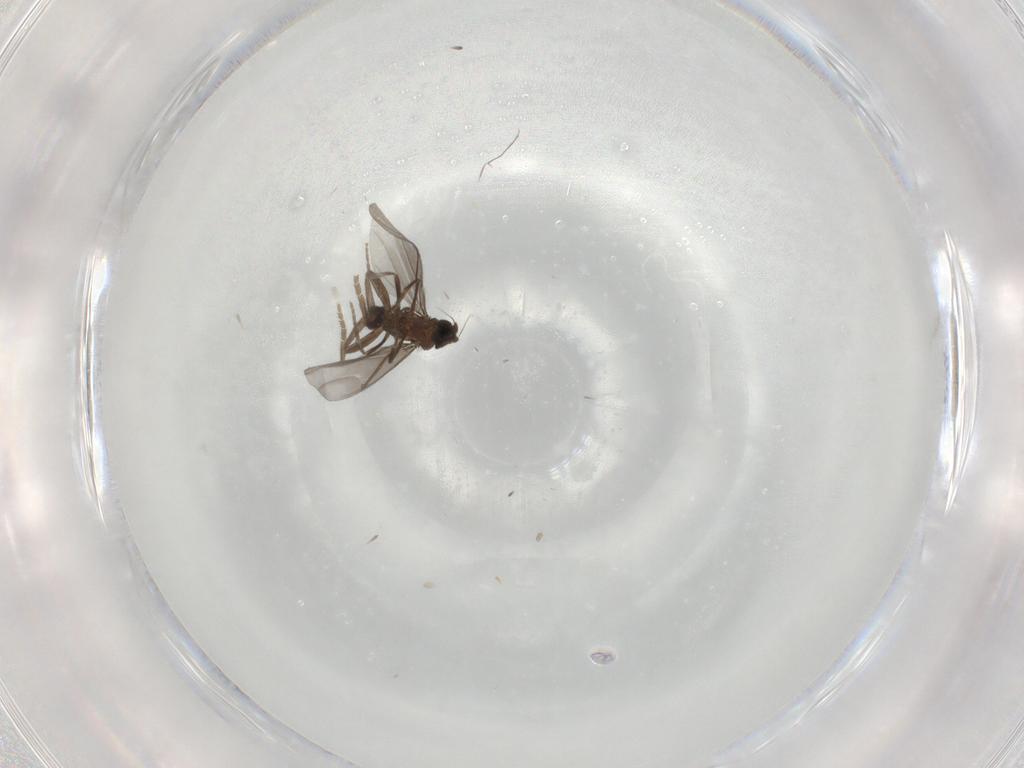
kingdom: Animalia
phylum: Arthropoda
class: Insecta
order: Diptera
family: Phoridae
